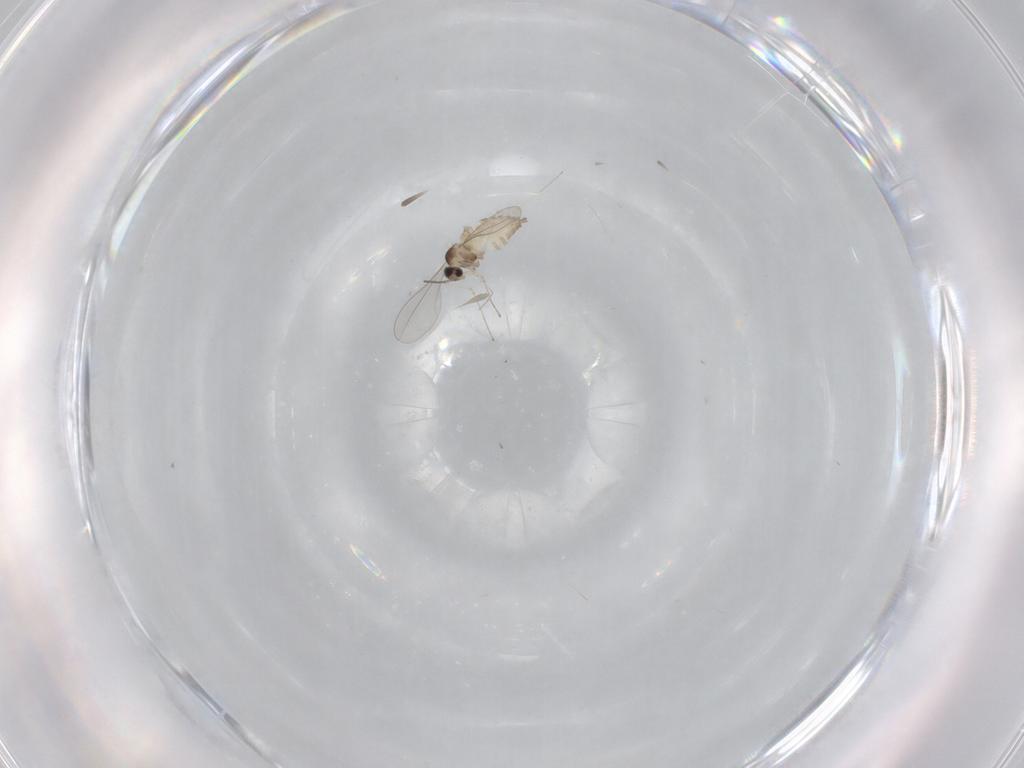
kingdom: Animalia
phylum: Arthropoda
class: Insecta
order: Diptera
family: Cecidomyiidae
